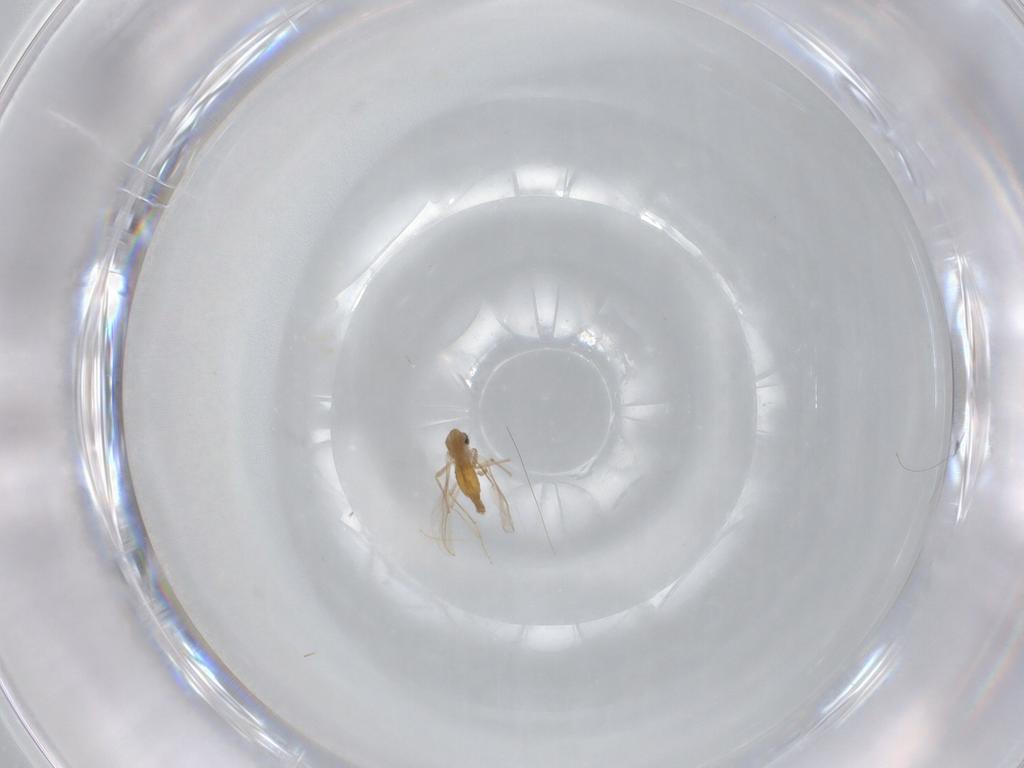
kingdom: Animalia
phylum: Arthropoda
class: Insecta
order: Diptera
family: Chironomidae
